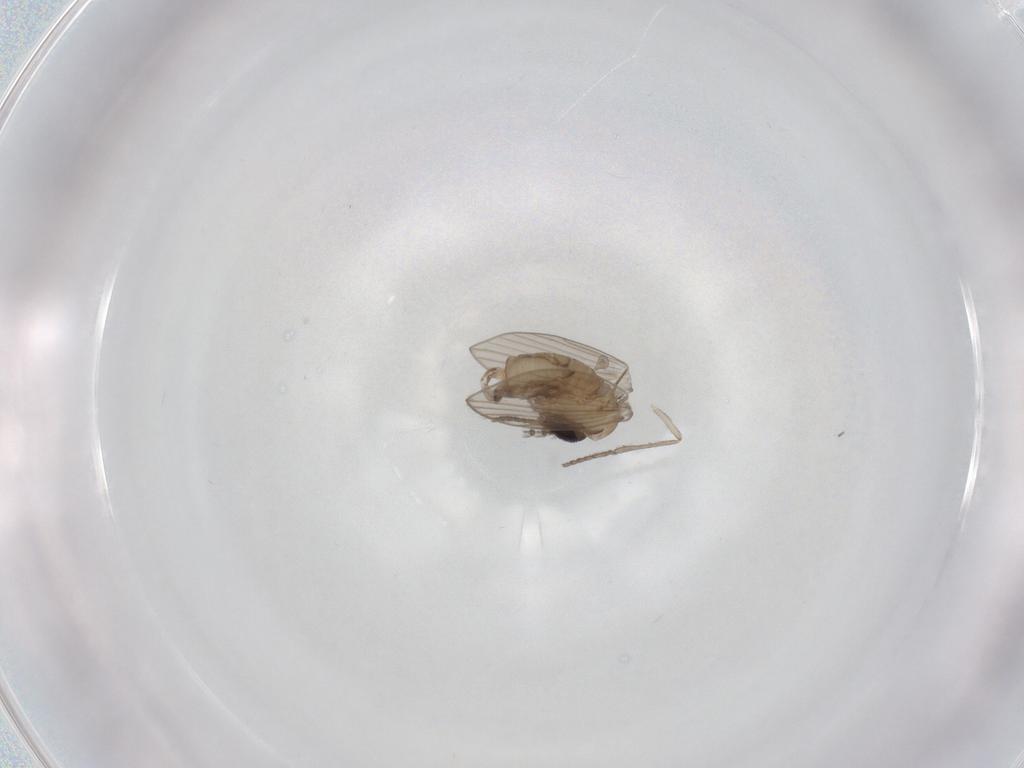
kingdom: Animalia
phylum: Arthropoda
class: Insecta
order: Diptera
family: Psychodidae
